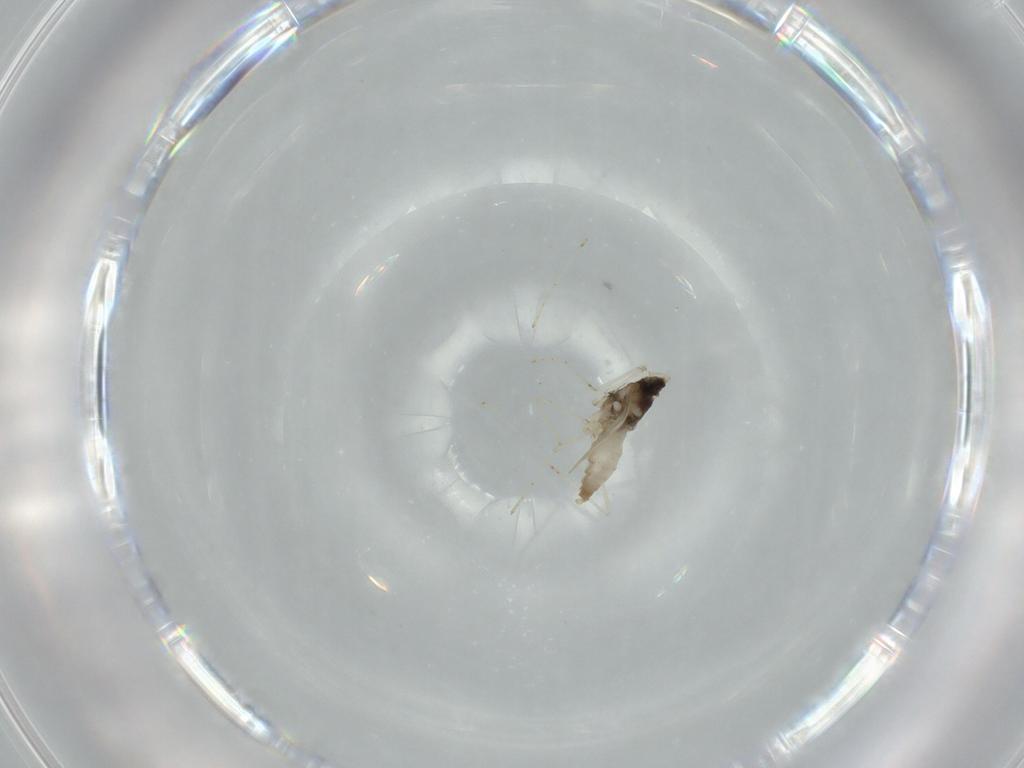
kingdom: Animalia
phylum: Arthropoda
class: Insecta
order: Diptera
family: Cecidomyiidae
